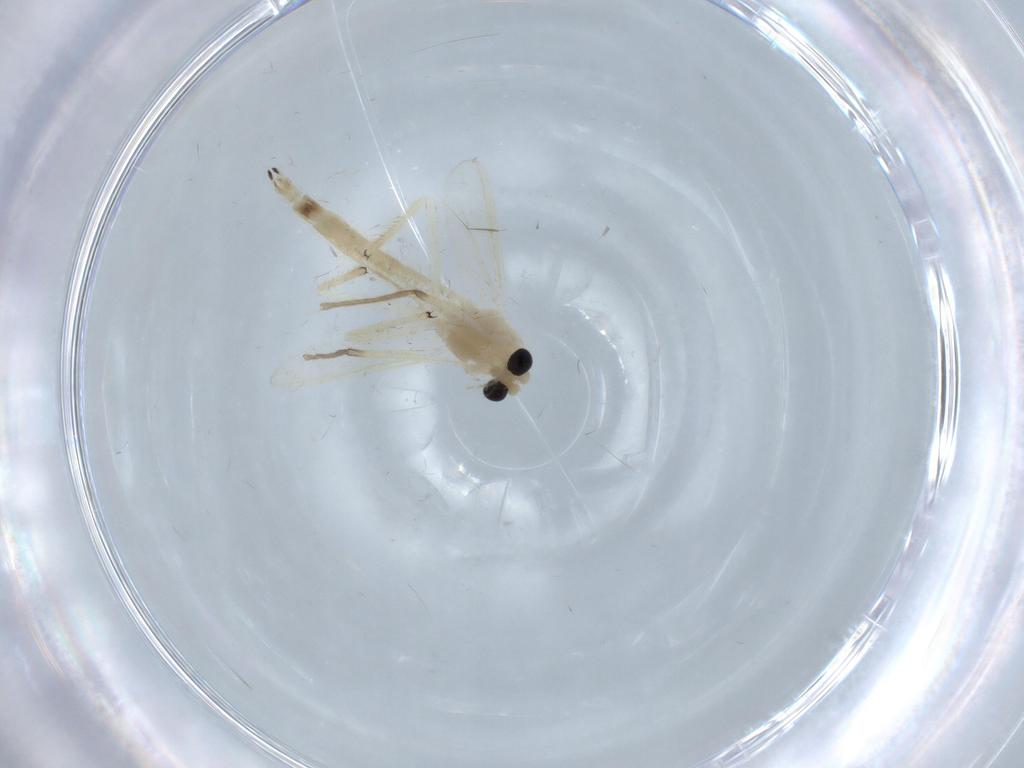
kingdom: Animalia
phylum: Arthropoda
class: Insecta
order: Diptera
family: Chironomidae
